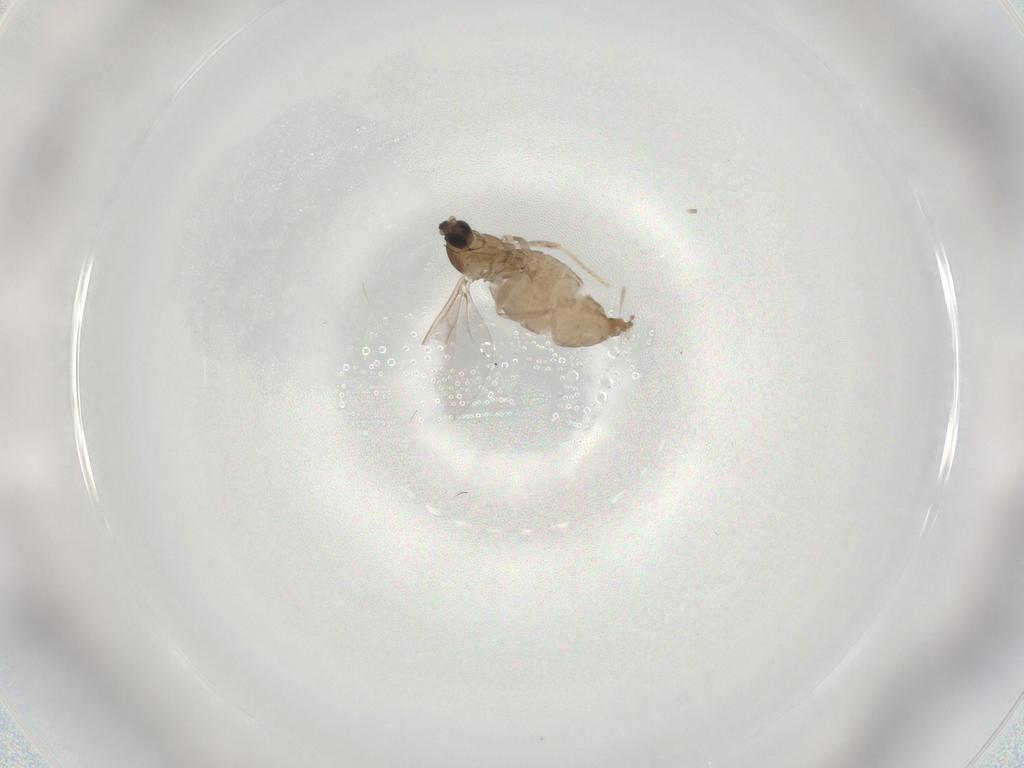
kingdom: Animalia
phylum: Arthropoda
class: Insecta
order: Diptera
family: Cecidomyiidae
